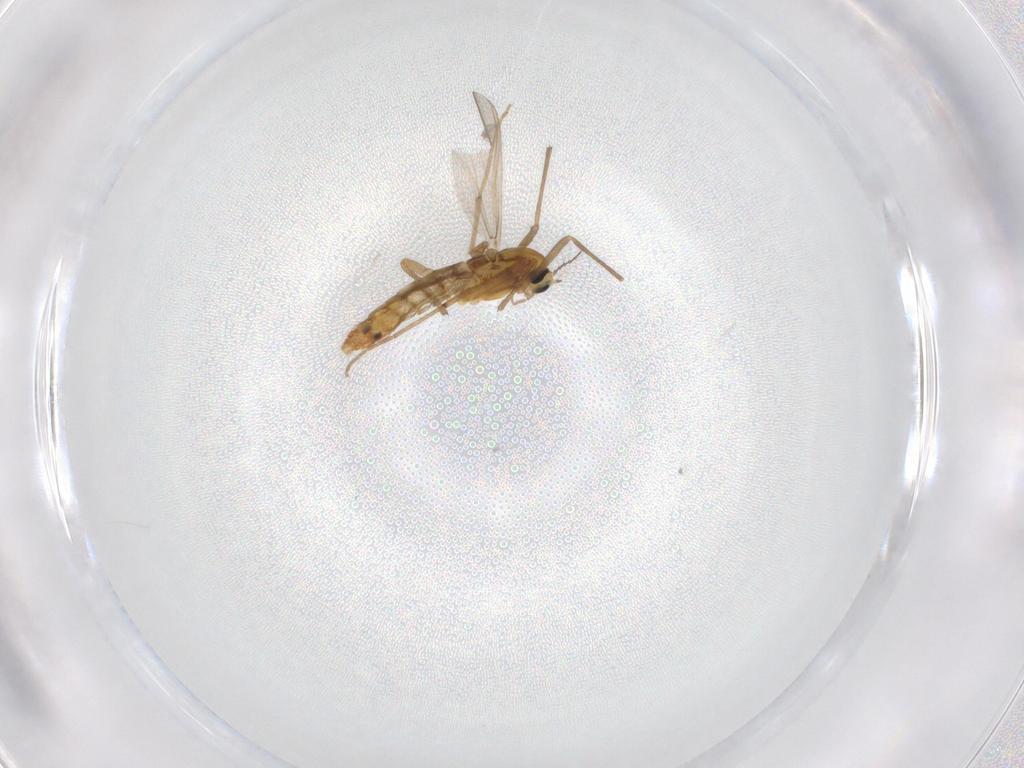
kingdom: Animalia
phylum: Arthropoda
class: Insecta
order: Diptera
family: Chironomidae
